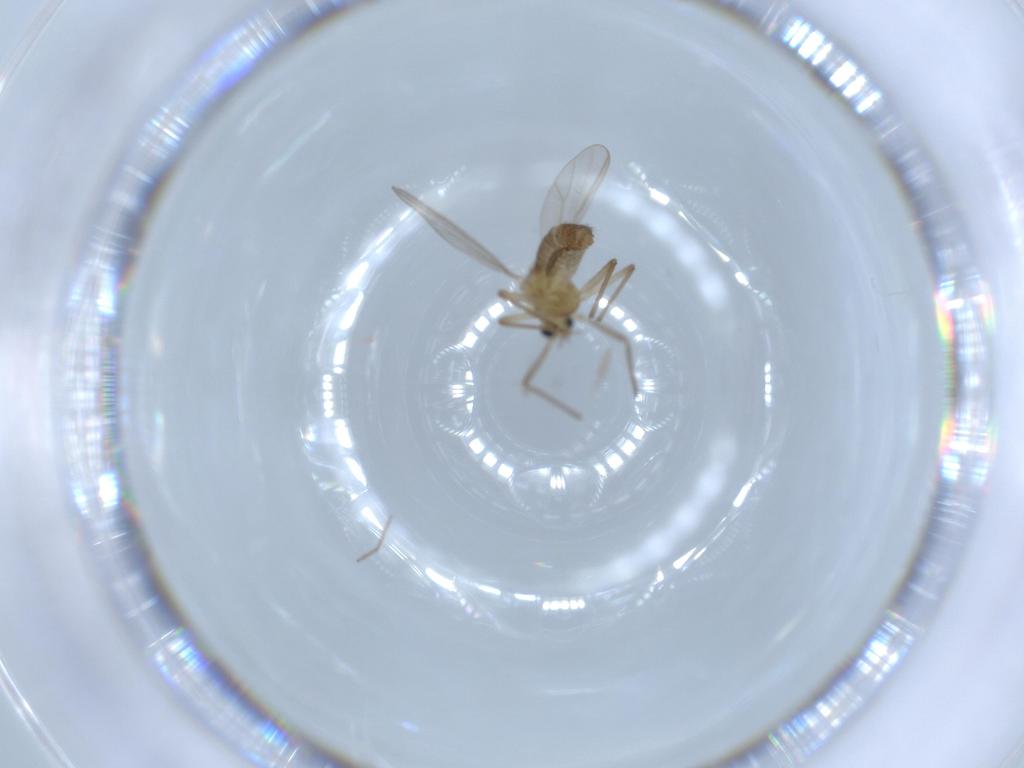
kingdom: Animalia
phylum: Arthropoda
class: Insecta
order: Diptera
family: Chironomidae
